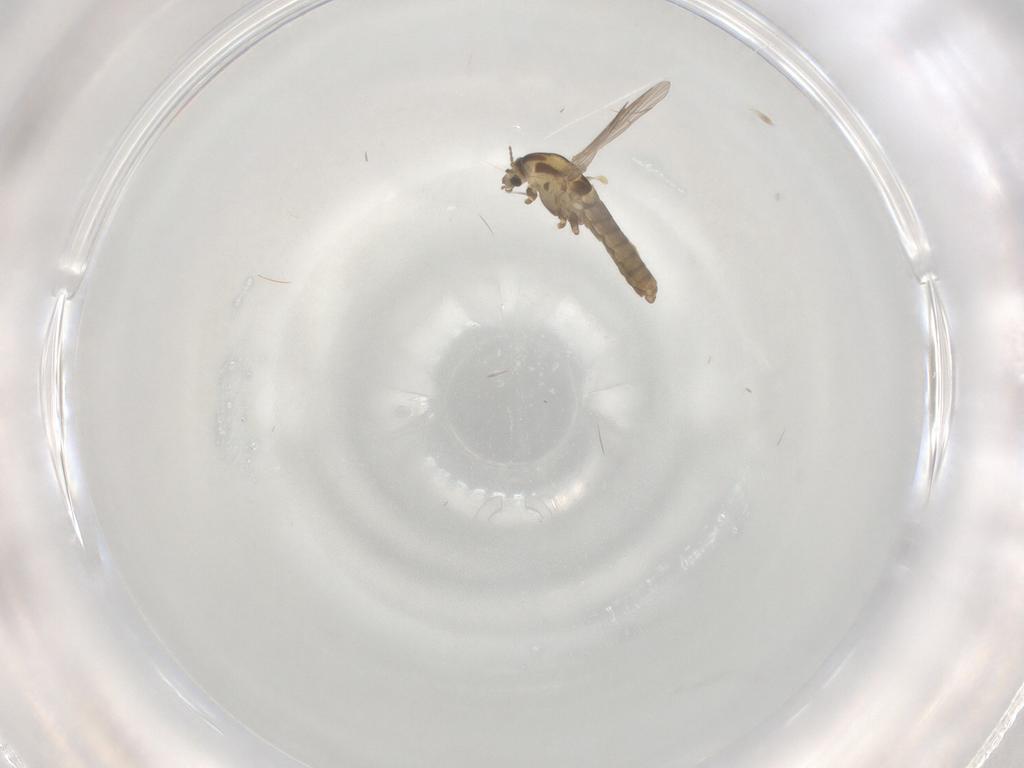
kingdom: Animalia
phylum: Arthropoda
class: Insecta
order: Diptera
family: Chironomidae
